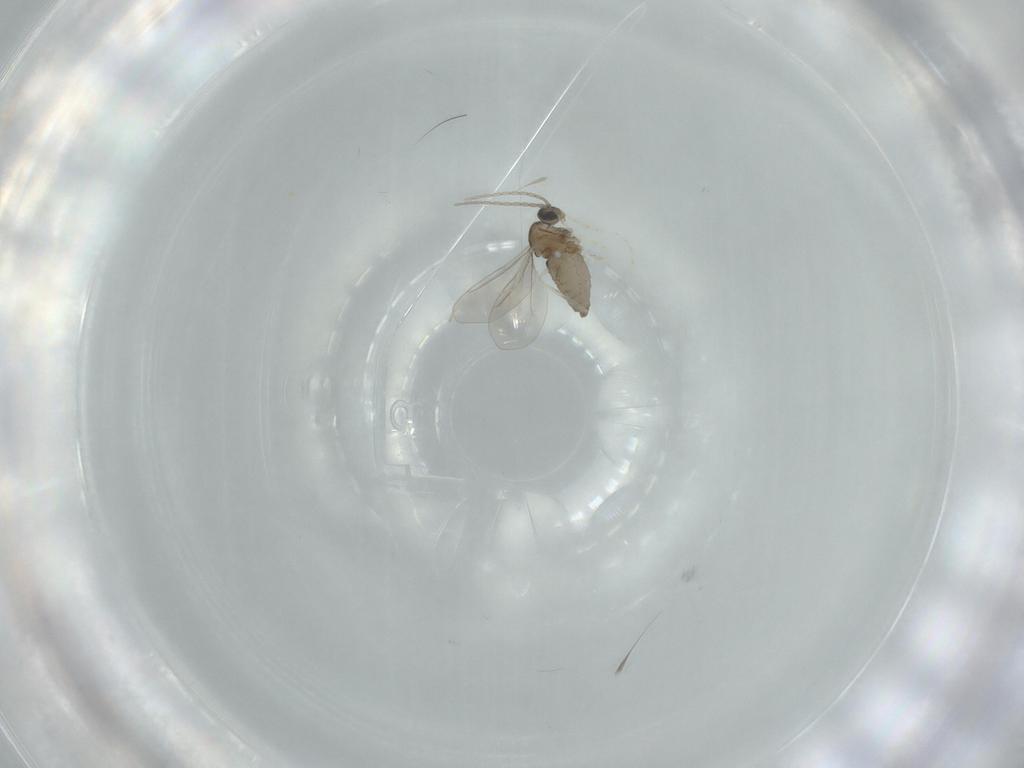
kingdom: Animalia
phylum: Arthropoda
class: Insecta
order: Diptera
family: Cecidomyiidae
